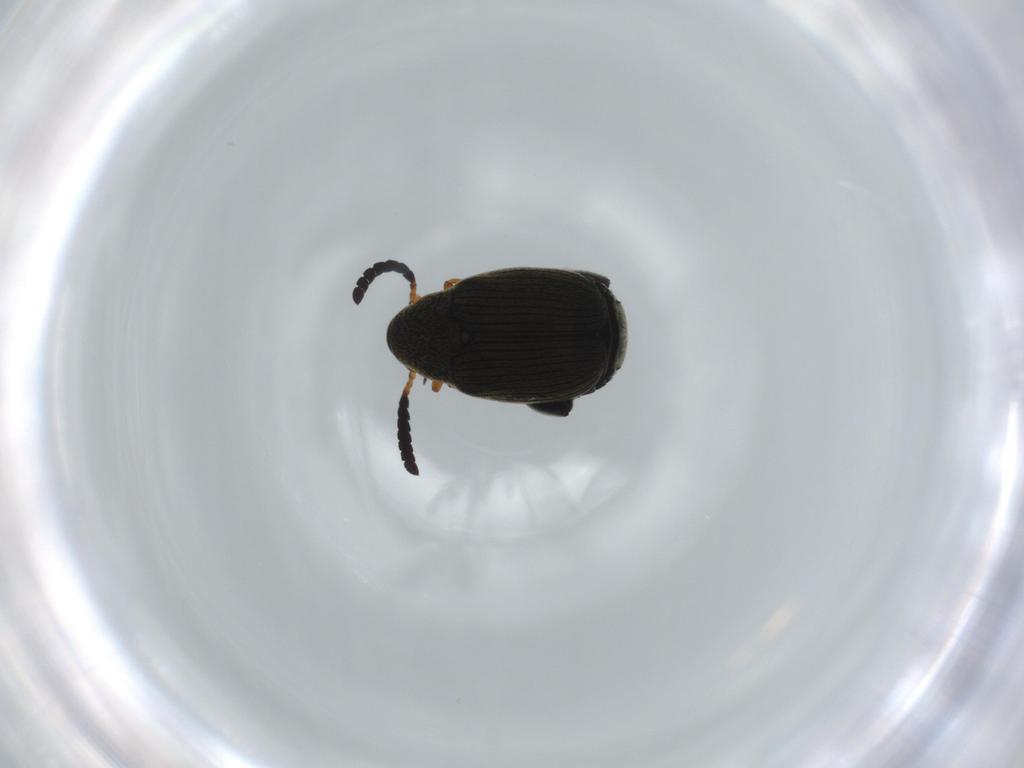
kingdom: Animalia
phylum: Arthropoda
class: Insecta
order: Coleoptera
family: Chrysomelidae
